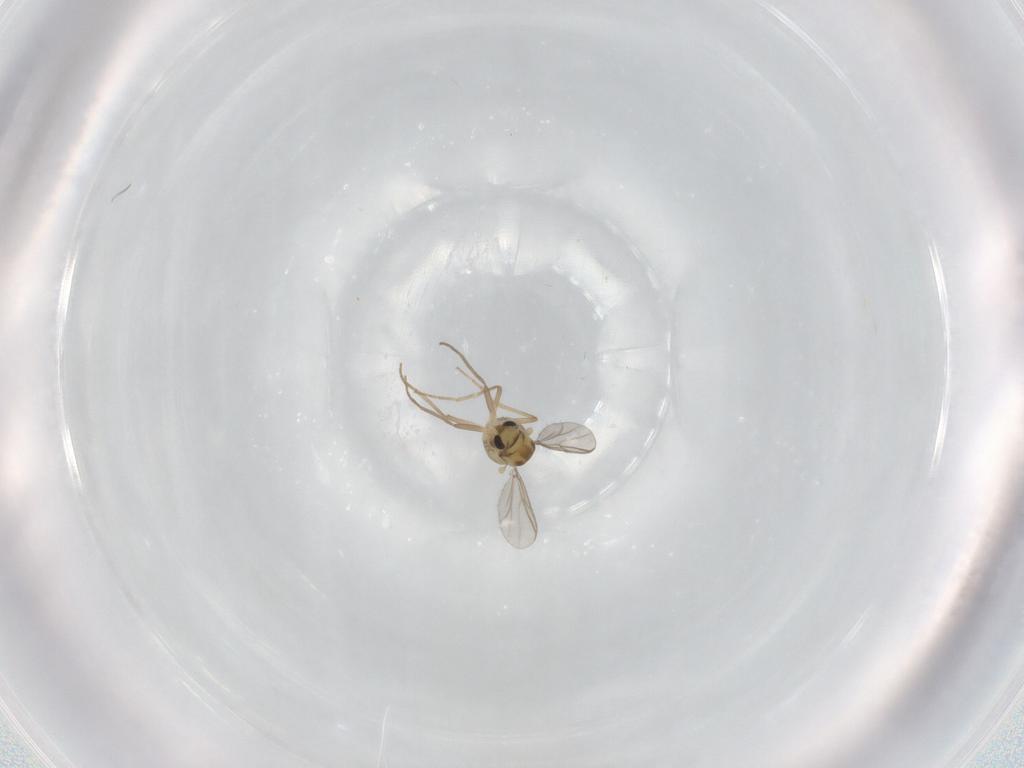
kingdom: Animalia
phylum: Arthropoda
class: Insecta
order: Diptera
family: Chironomidae
